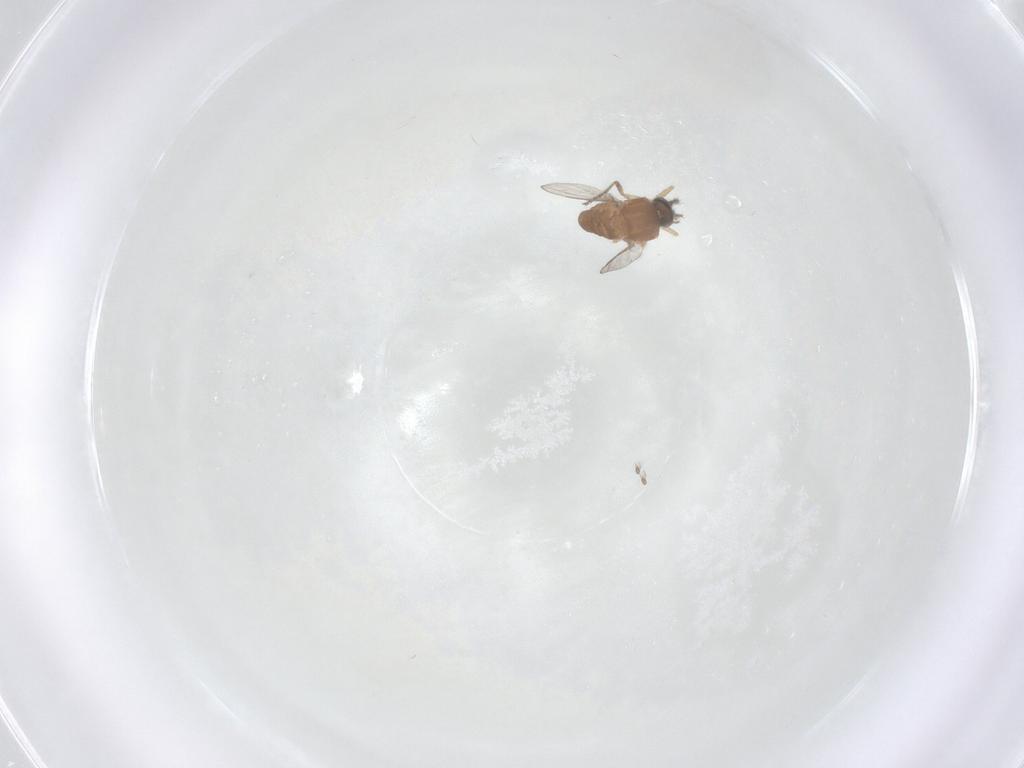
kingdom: Animalia
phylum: Arthropoda
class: Insecta
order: Diptera
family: Ceratopogonidae
